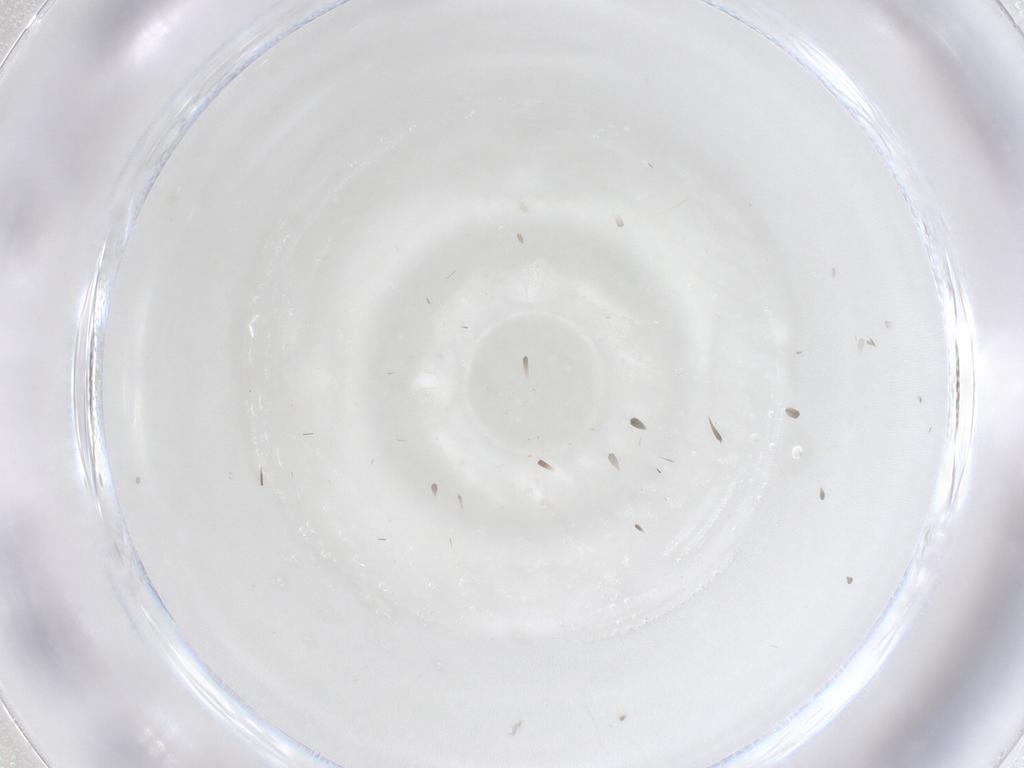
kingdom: Animalia
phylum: Arthropoda
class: Insecta
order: Diptera
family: Hybotidae
